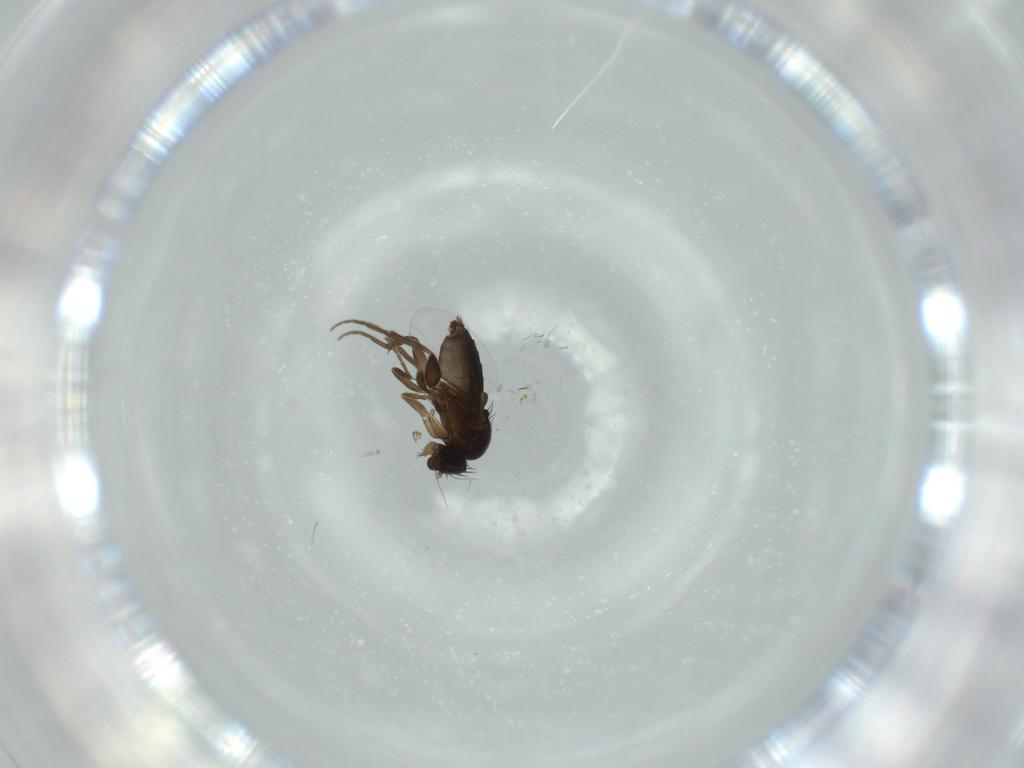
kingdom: Animalia
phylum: Arthropoda
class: Insecta
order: Diptera
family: Phoridae
